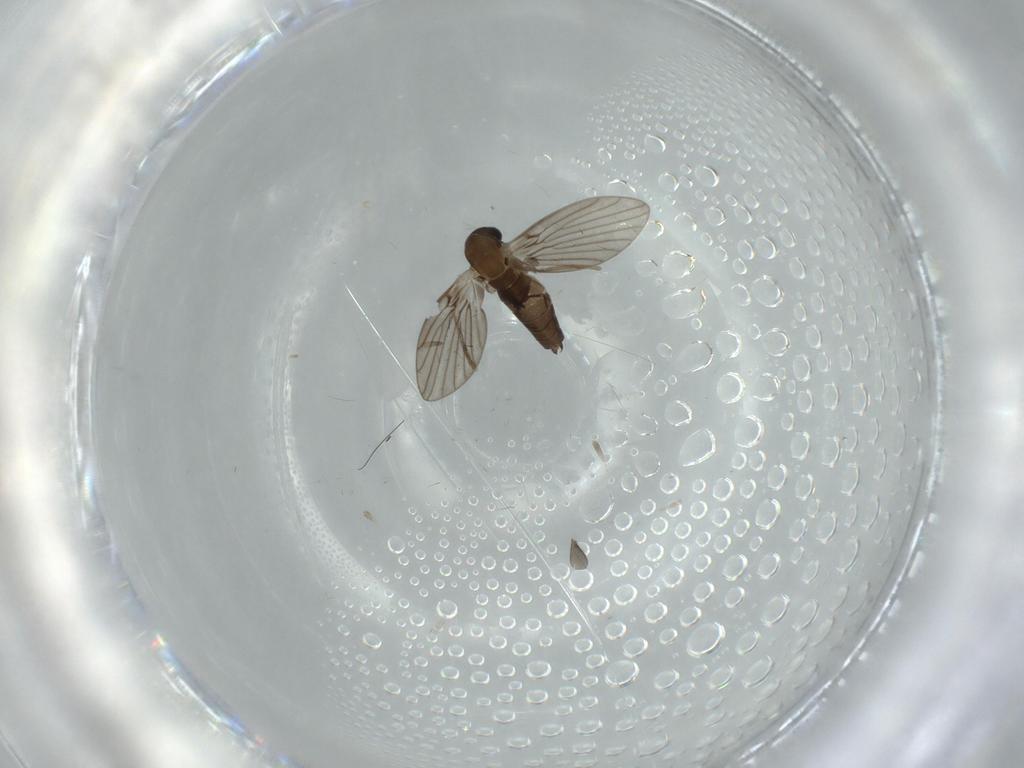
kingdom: Animalia
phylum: Arthropoda
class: Insecta
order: Diptera
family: Sciaridae
